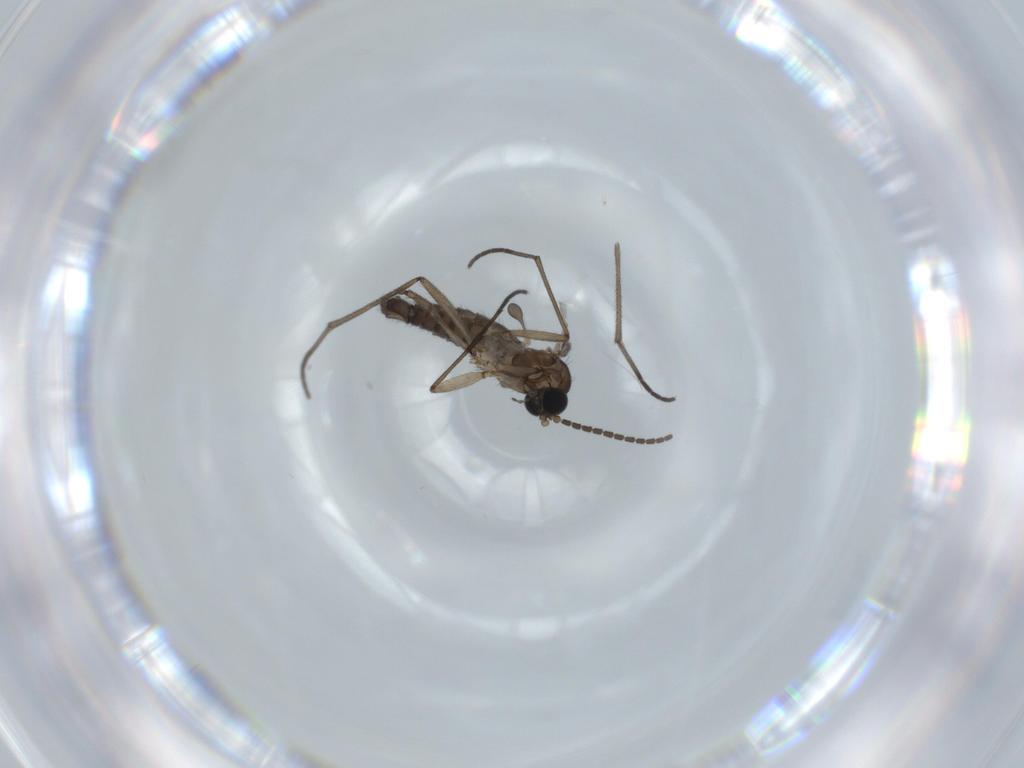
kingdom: Animalia
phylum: Arthropoda
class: Insecta
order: Diptera
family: Sciaridae
